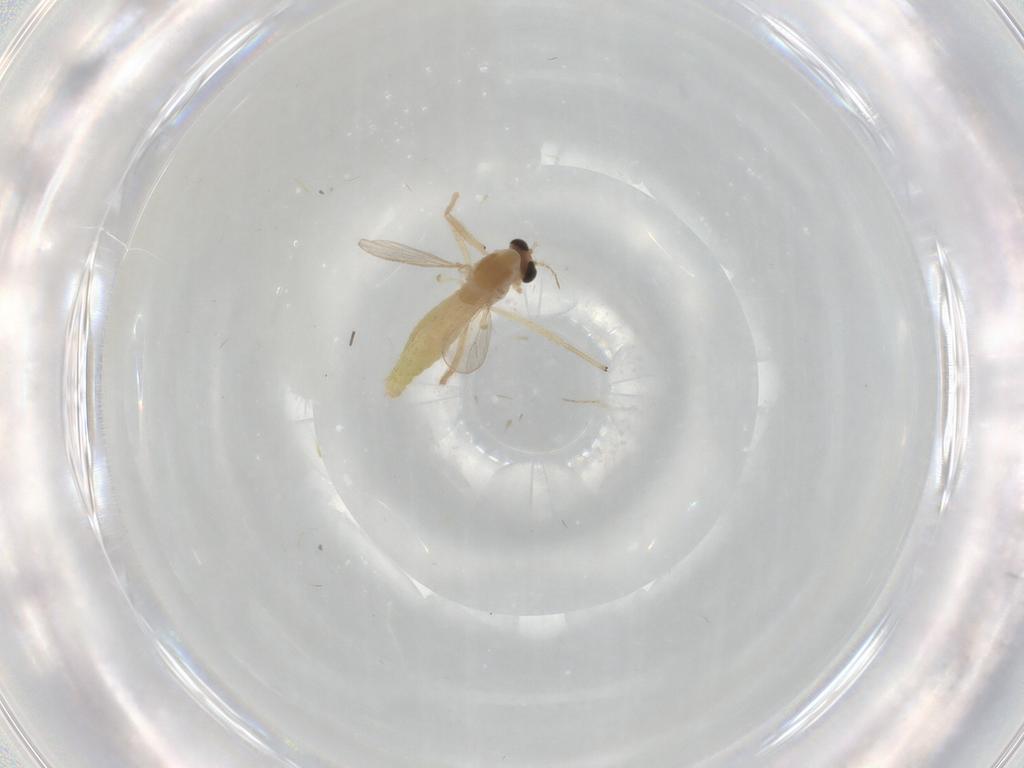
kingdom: Animalia
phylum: Arthropoda
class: Insecta
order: Diptera
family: Chironomidae
